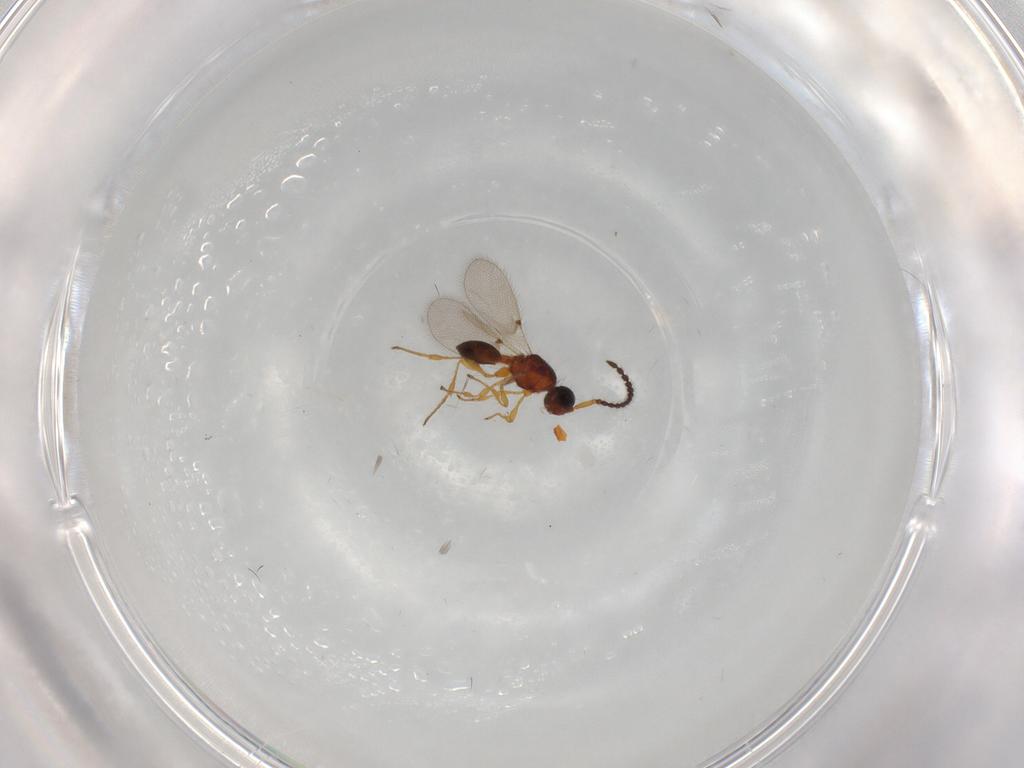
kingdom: Animalia
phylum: Arthropoda
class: Insecta
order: Hymenoptera
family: Diapriidae
